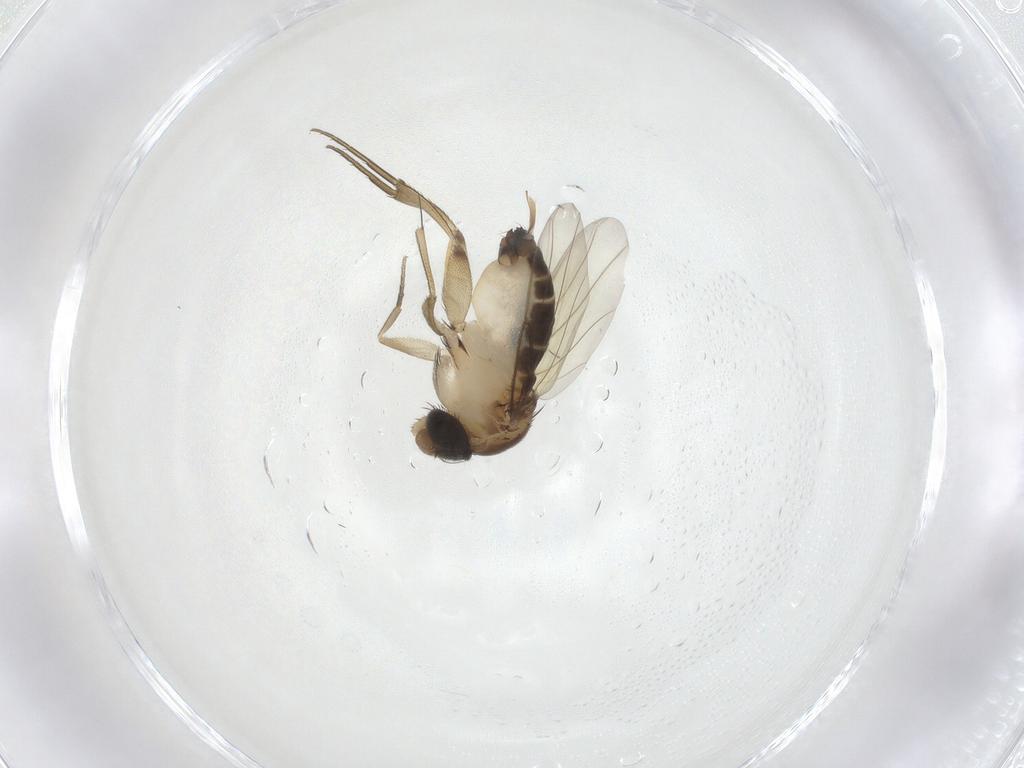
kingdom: Animalia
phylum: Arthropoda
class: Insecta
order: Diptera
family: Phoridae
